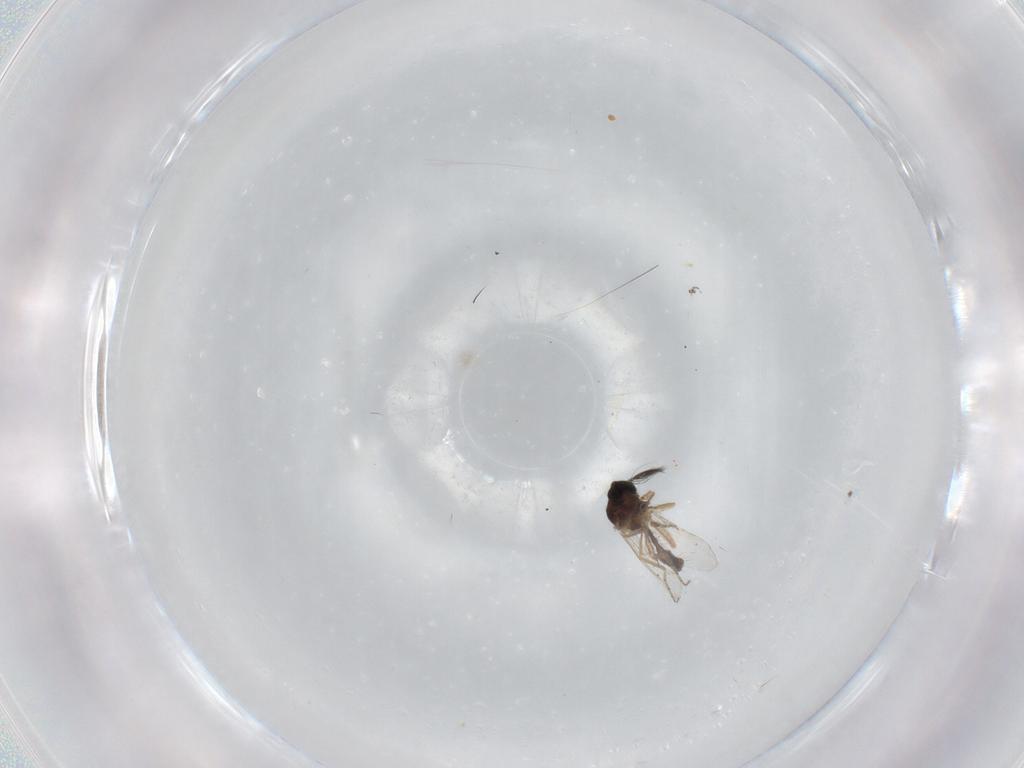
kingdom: Animalia
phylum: Arthropoda
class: Insecta
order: Diptera
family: Ceratopogonidae
